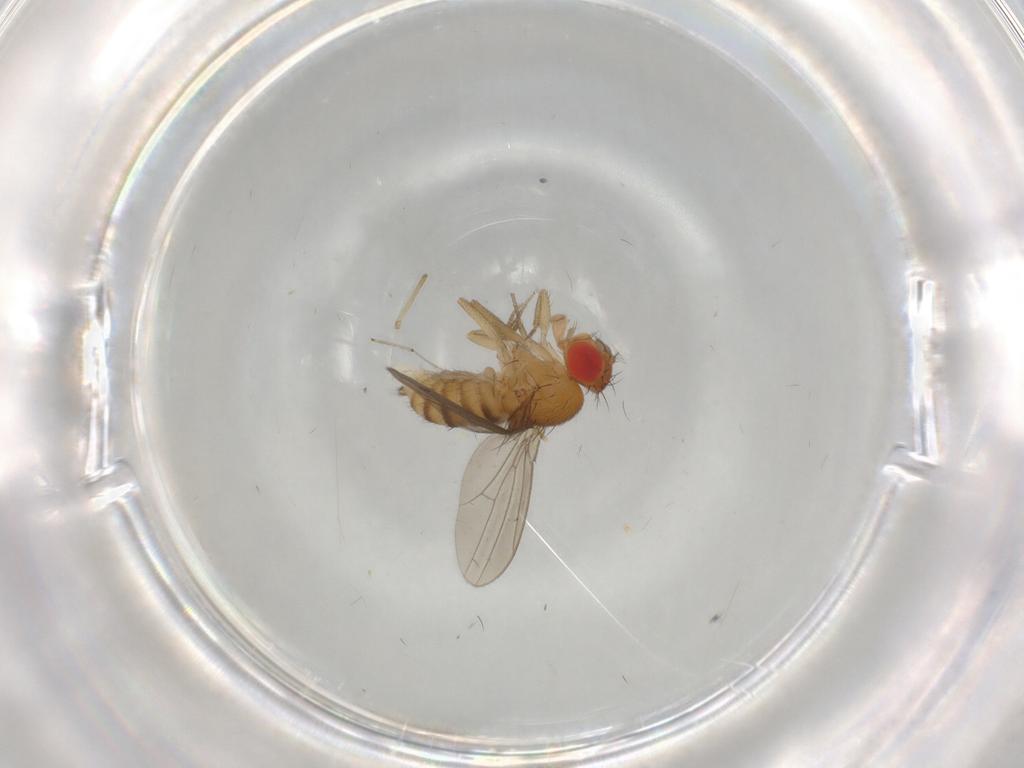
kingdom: Animalia
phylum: Arthropoda
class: Insecta
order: Diptera
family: Drosophilidae
